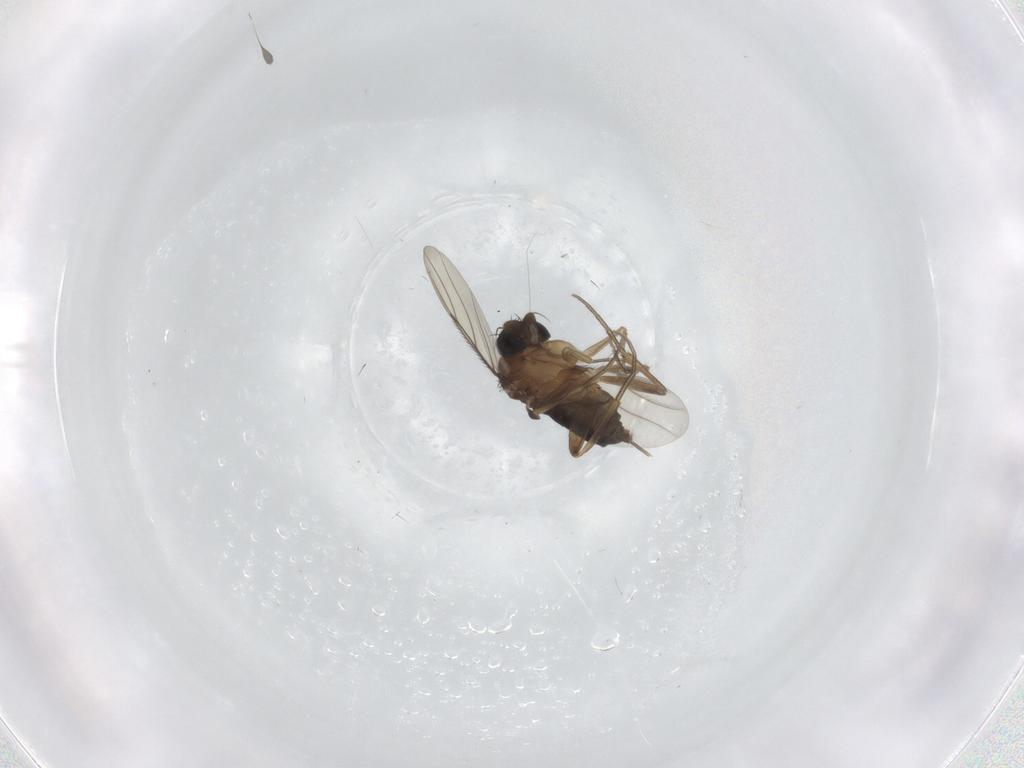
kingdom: Animalia
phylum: Arthropoda
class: Insecta
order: Diptera
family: Phoridae
